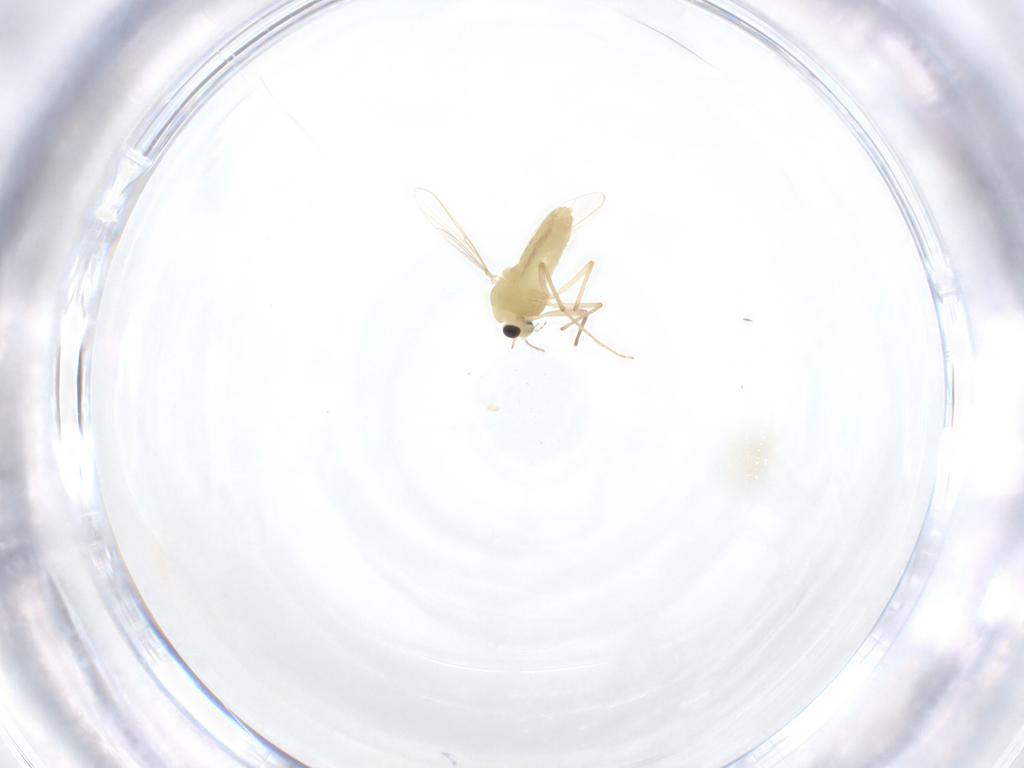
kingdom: Animalia
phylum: Arthropoda
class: Insecta
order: Diptera
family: Chironomidae
